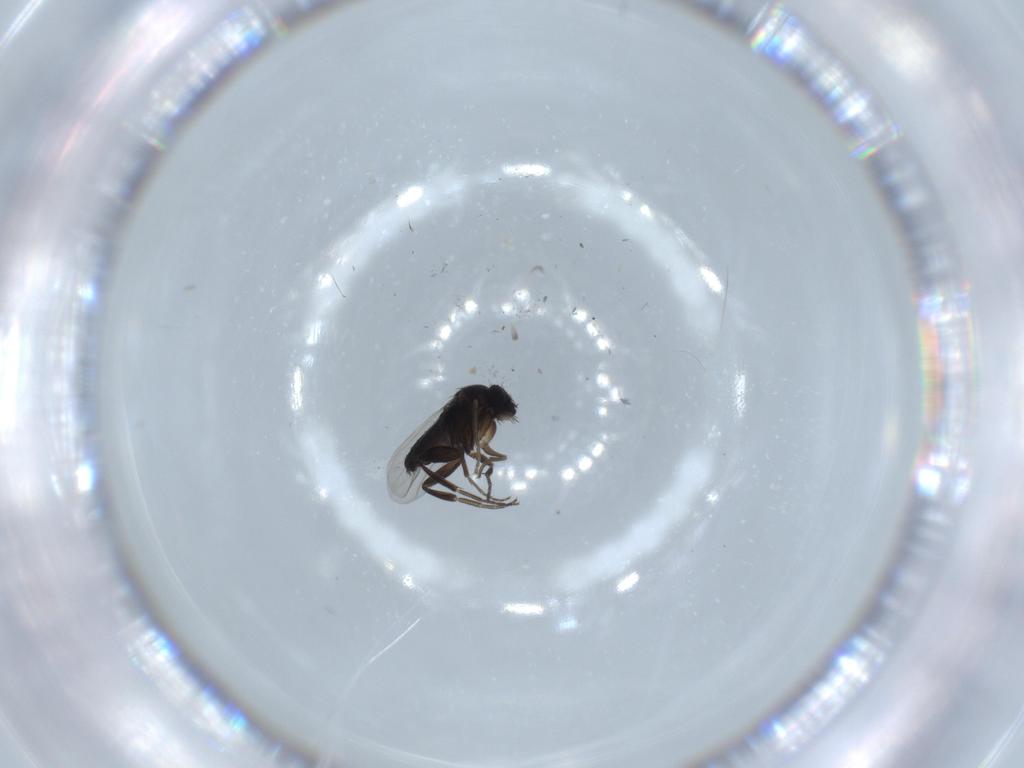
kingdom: Animalia
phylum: Arthropoda
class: Insecta
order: Diptera
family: Phoridae
